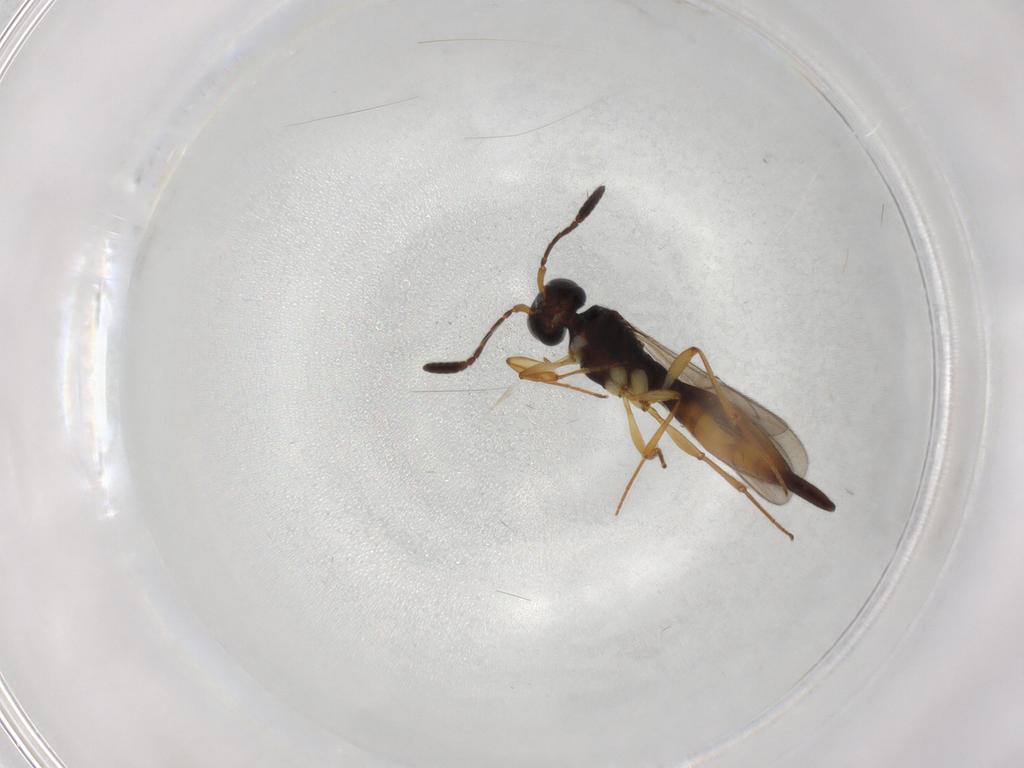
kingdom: Animalia
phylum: Arthropoda
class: Insecta
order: Hymenoptera
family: Scelionidae
